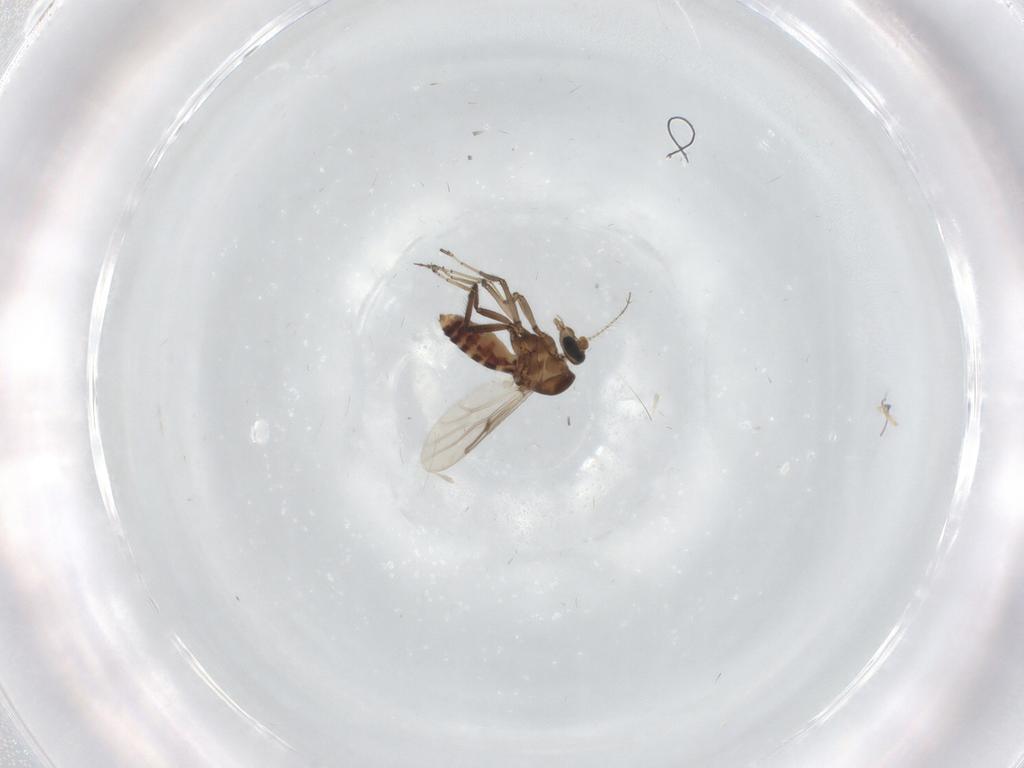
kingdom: Animalia
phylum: Arthropoda
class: Insecta
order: Diptera
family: Ceratopogonidae
